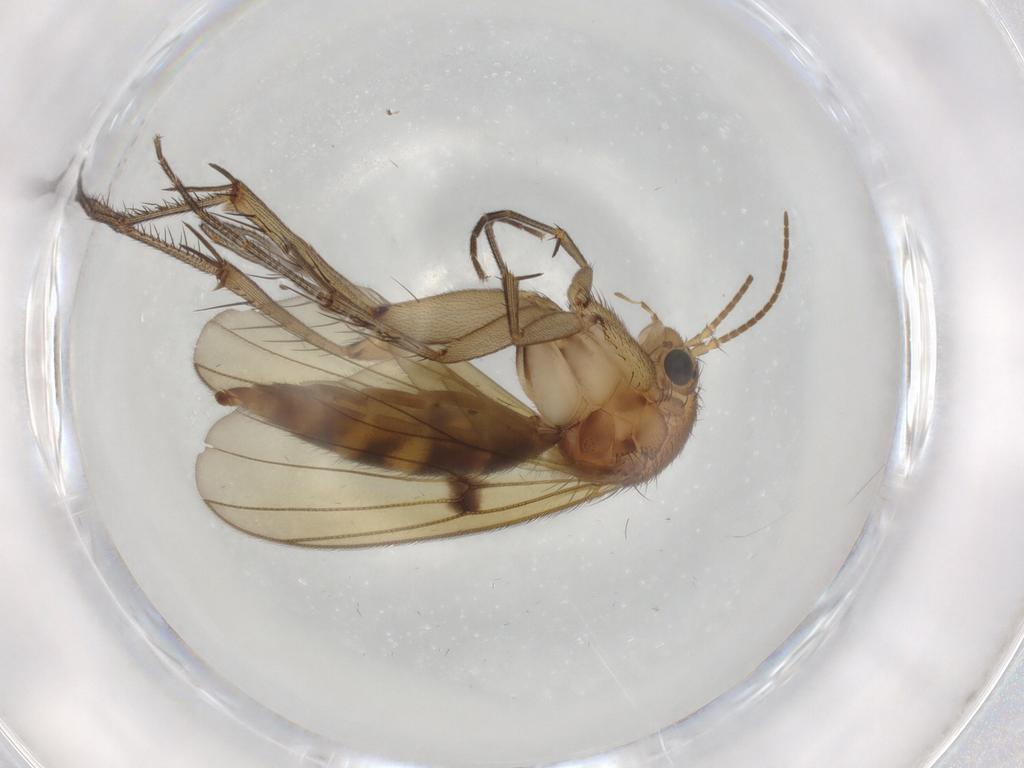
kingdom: Animalia
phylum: Arthropoda
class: Insecta
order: Diptera
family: Mycetophilidae
